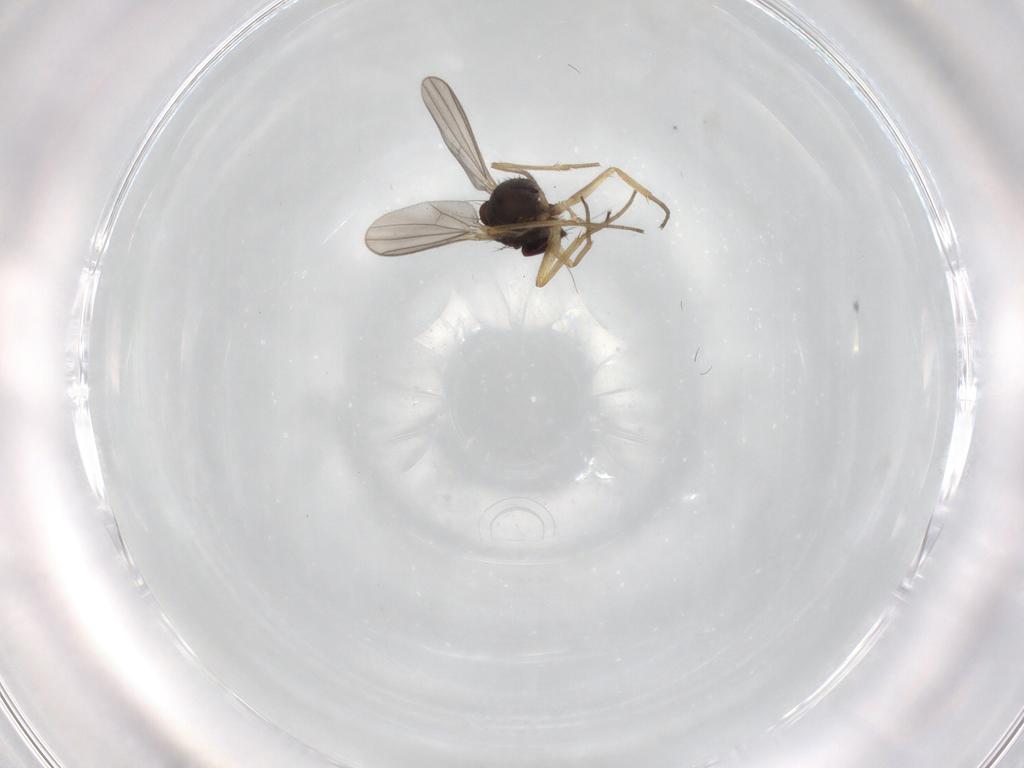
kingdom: Animalia
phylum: Arthropoda
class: Insecta
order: Diptera
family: Dolichopodidae
